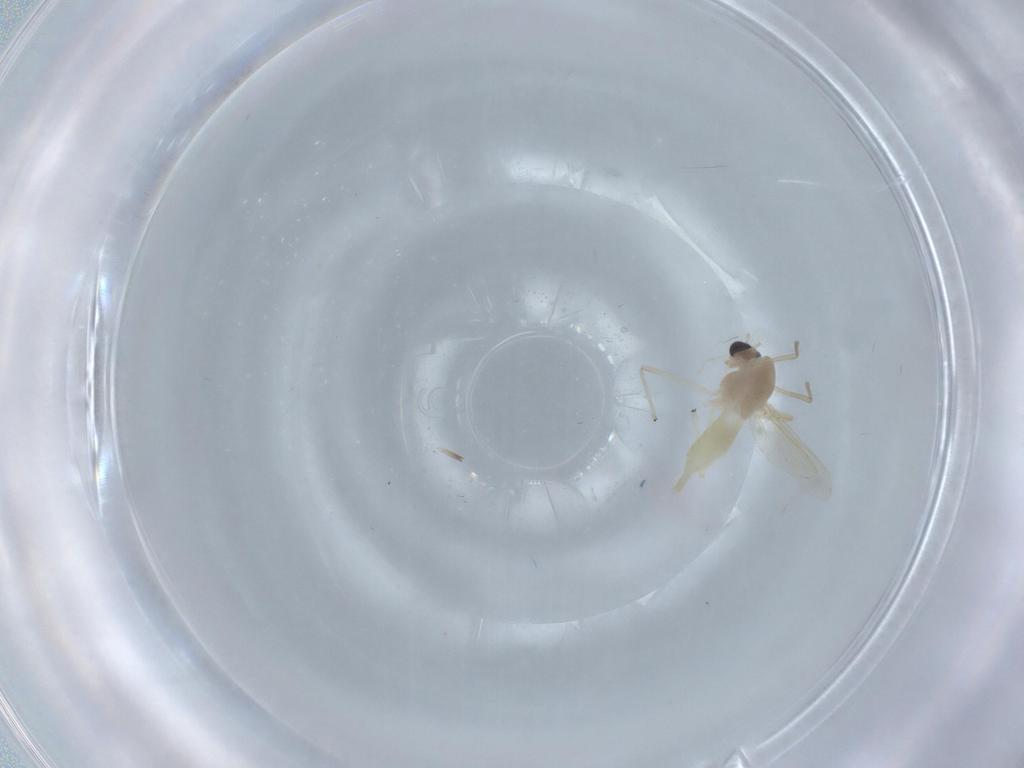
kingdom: Animalia
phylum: Arthropoda
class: Insecta
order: Diptera
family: Chironomidae
